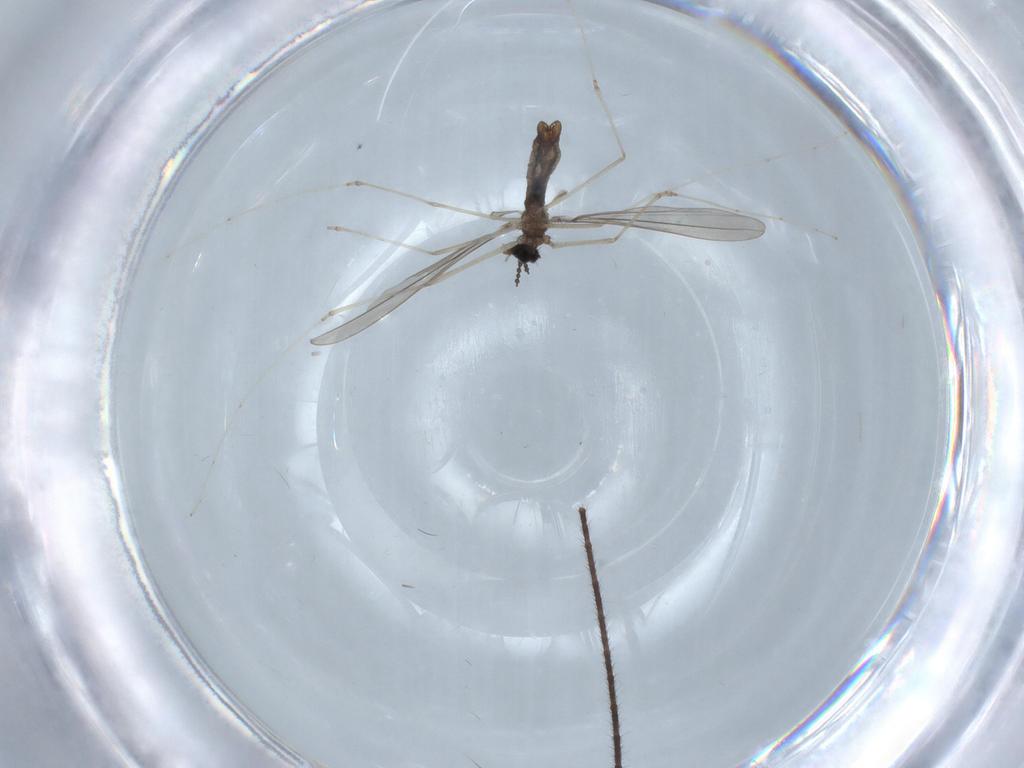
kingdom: Animalia
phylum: Arthropoda
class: Insecta
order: Diptera
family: Cecidomyiidae
